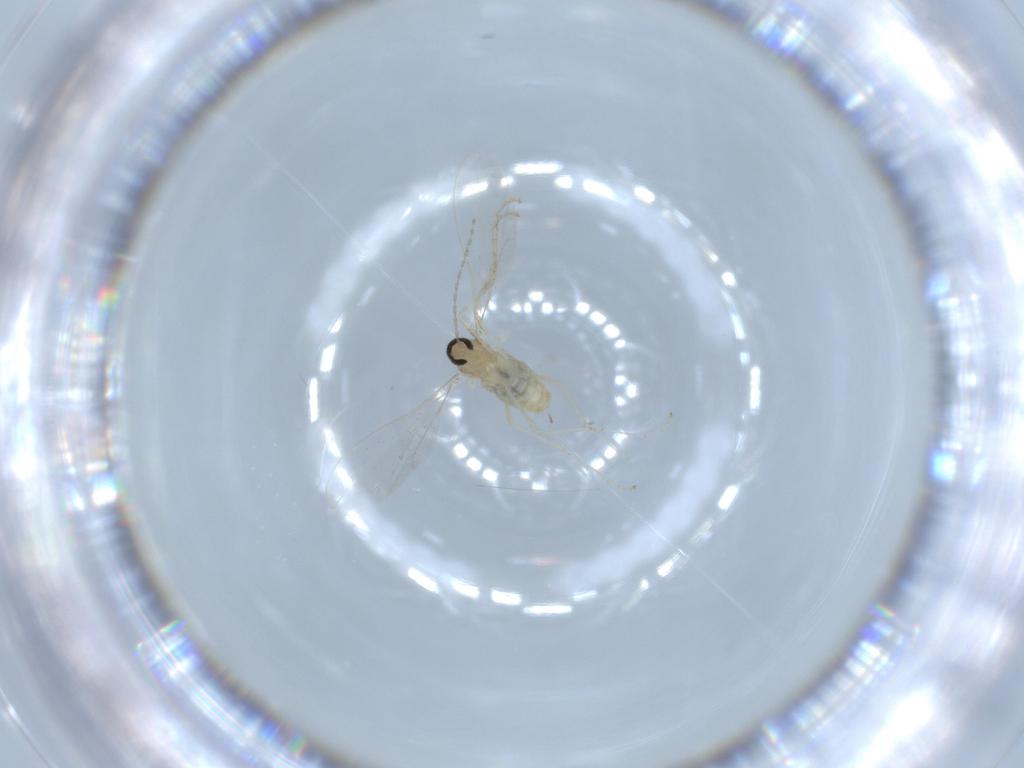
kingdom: Animalia
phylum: Arthropoda
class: Insecta
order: Diptera
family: Cecidomyiidae
